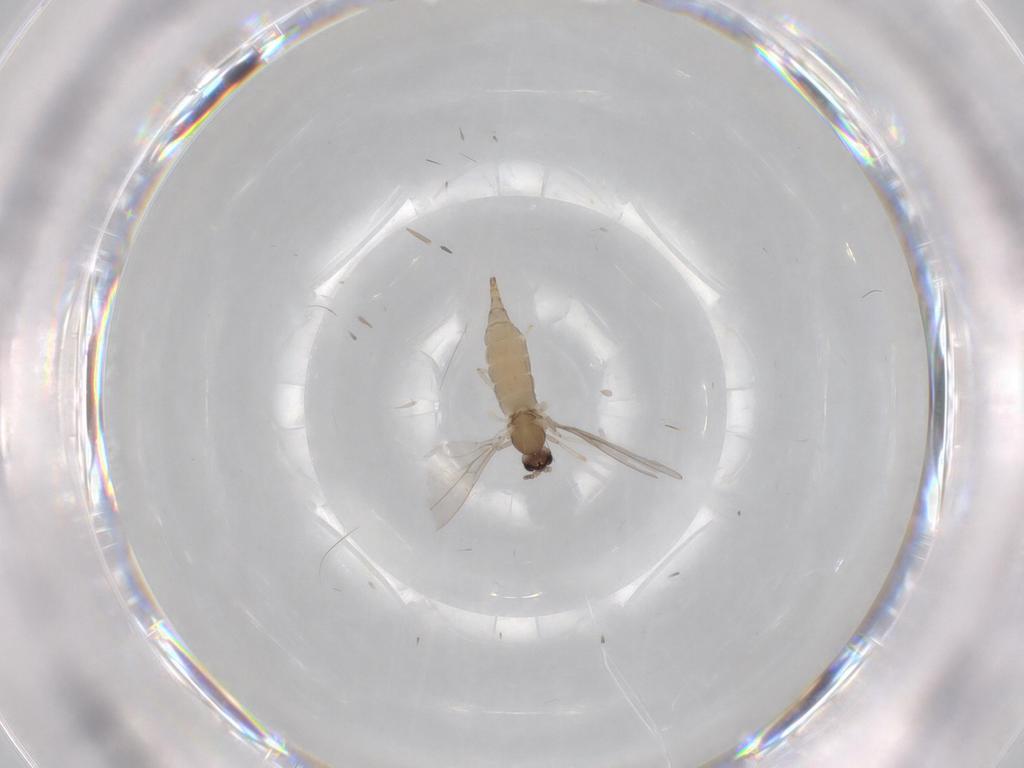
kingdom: Animalia
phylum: Arthropoda
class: Insecta
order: Diptera
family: Cecidomyiidae
